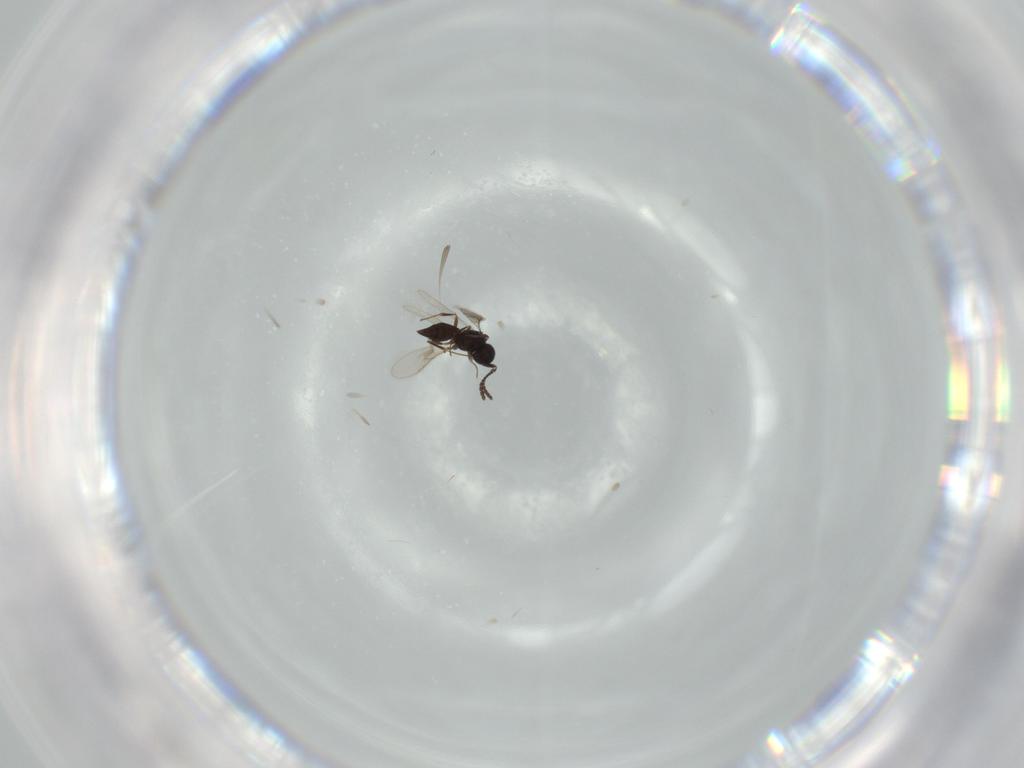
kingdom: Animalia
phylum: Arthropoda
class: Insecta
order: Hymenoptera
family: Scelionidae
